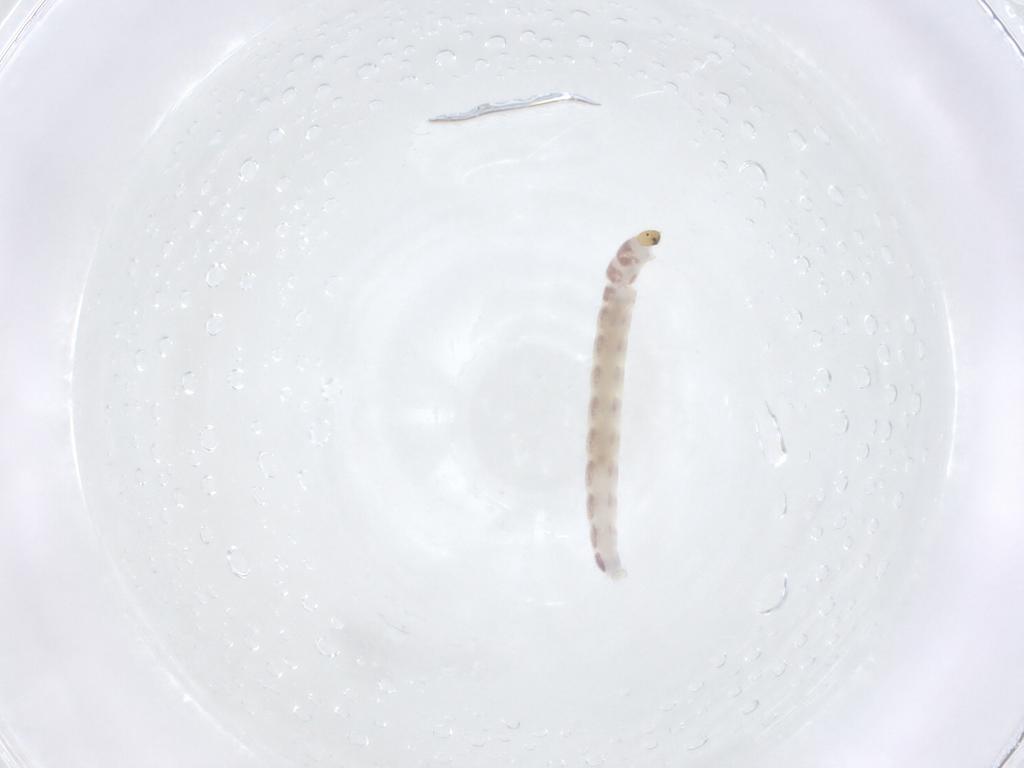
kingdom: Animalia
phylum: Arthropoda
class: Insecta
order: Diptera
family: Chironomidae
